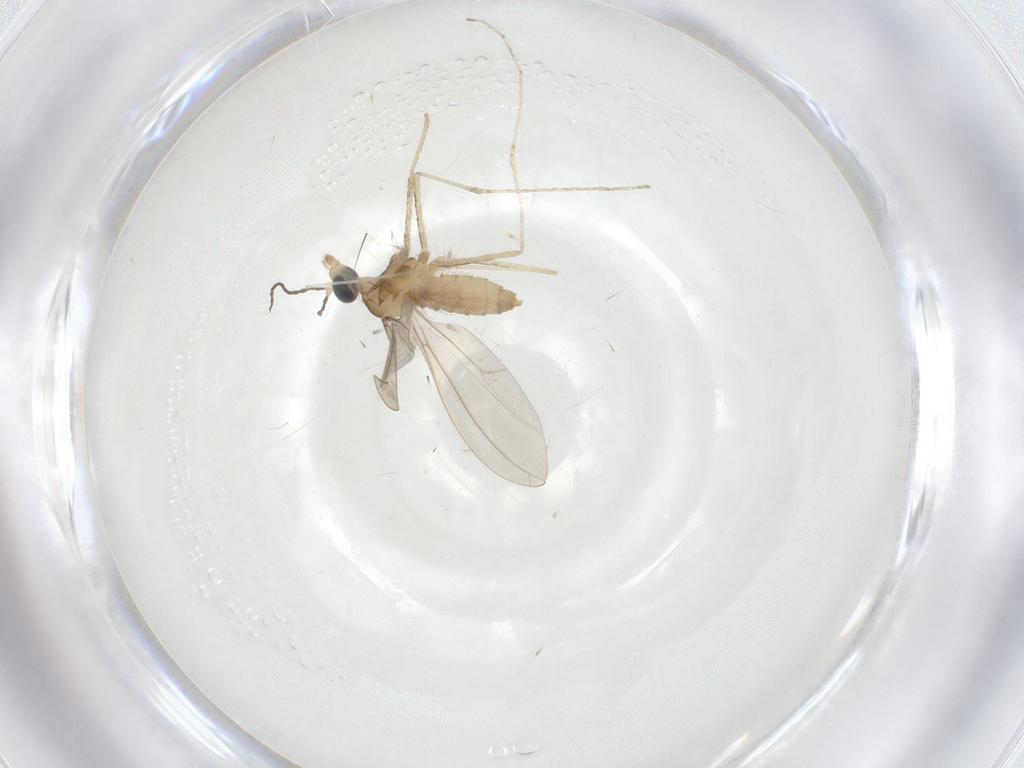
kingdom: Animalia
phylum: Arthropoda
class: Insecta
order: Diptera
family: Cecidomyiidae
